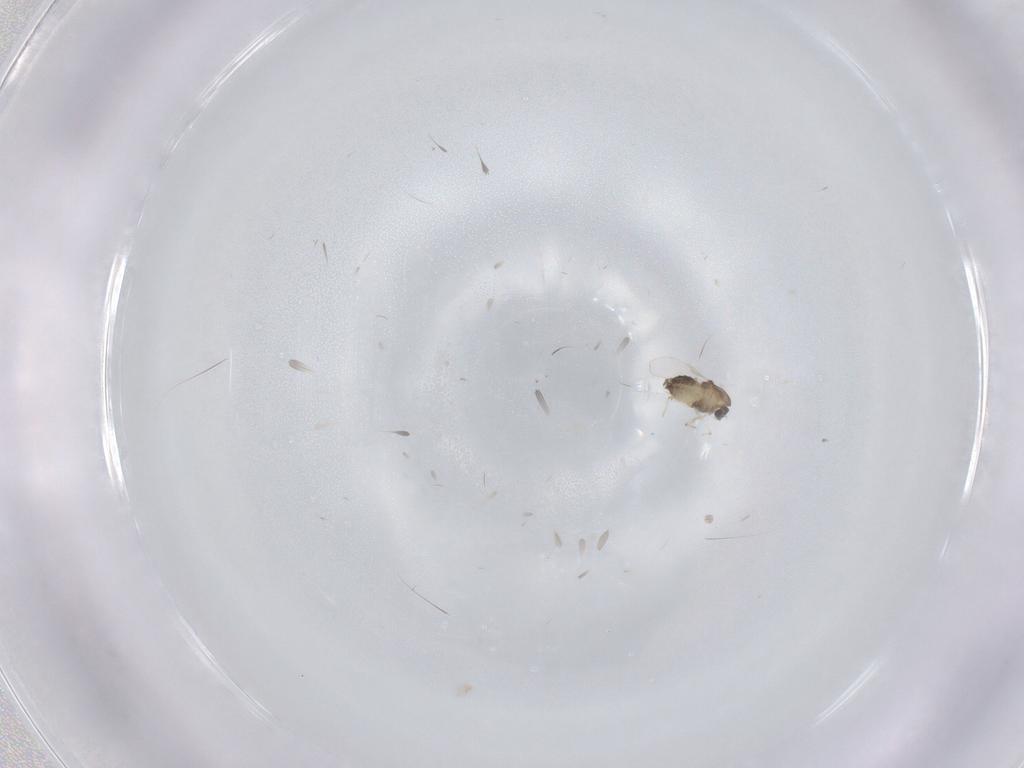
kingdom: Animalia
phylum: Arthropoda
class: Insecta
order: Diptera
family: Chironomidae
